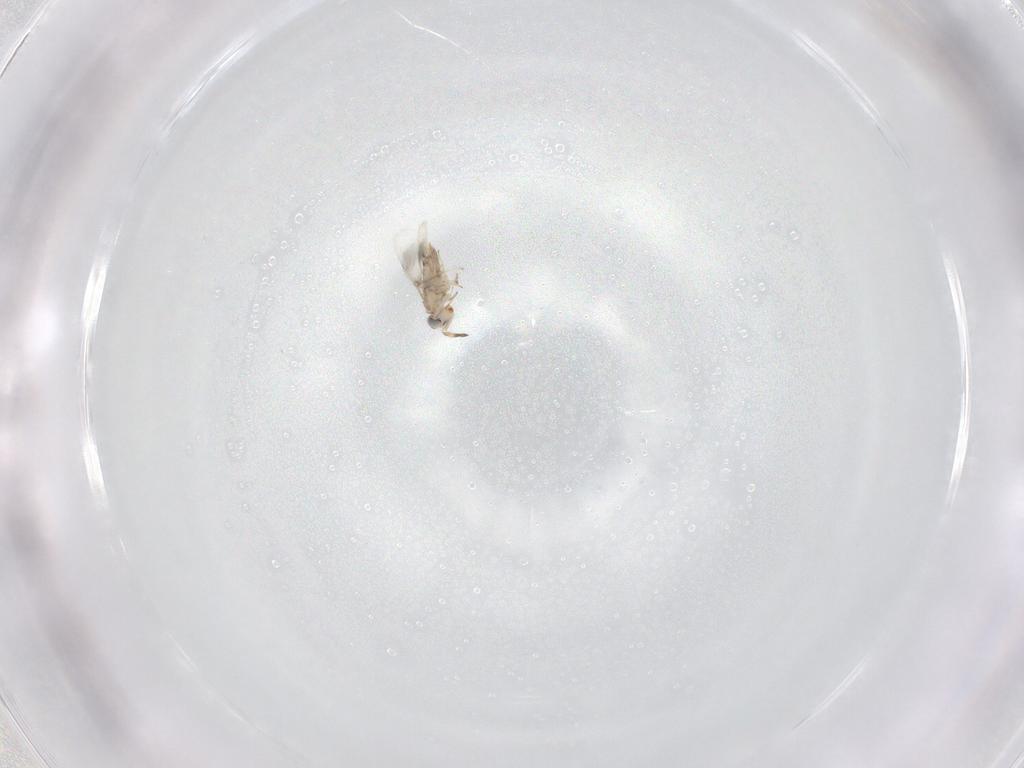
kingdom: Animalia
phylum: Arthropoda
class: Insecta
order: Hymenoptera
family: Aphelinidae
